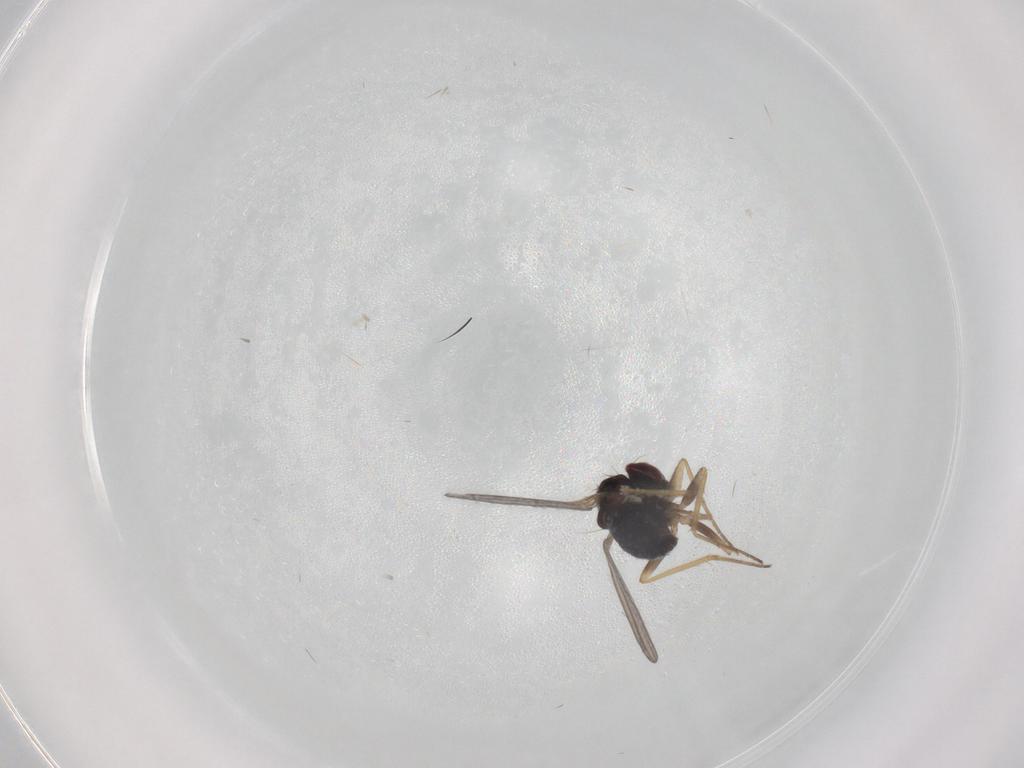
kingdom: Animalia
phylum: Arthropoda
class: Insecta
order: Diptera
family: Dolichopodidae
